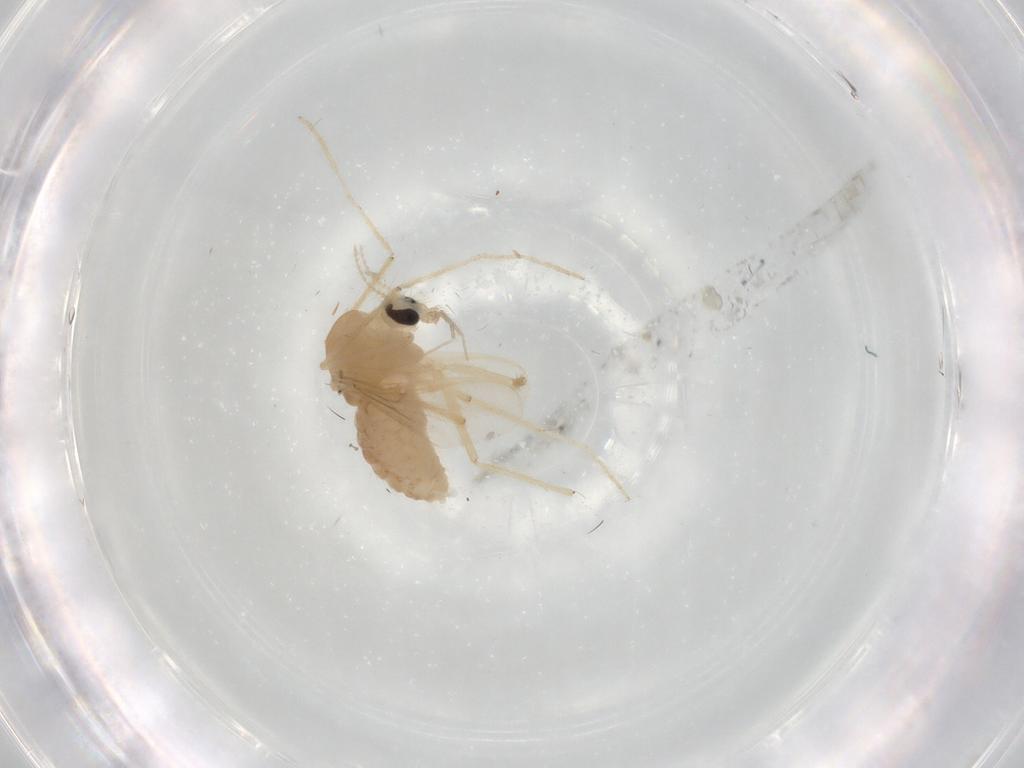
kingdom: Animalia
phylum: Arthropoda
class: Insecta
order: Diptera
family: Chironomidae
